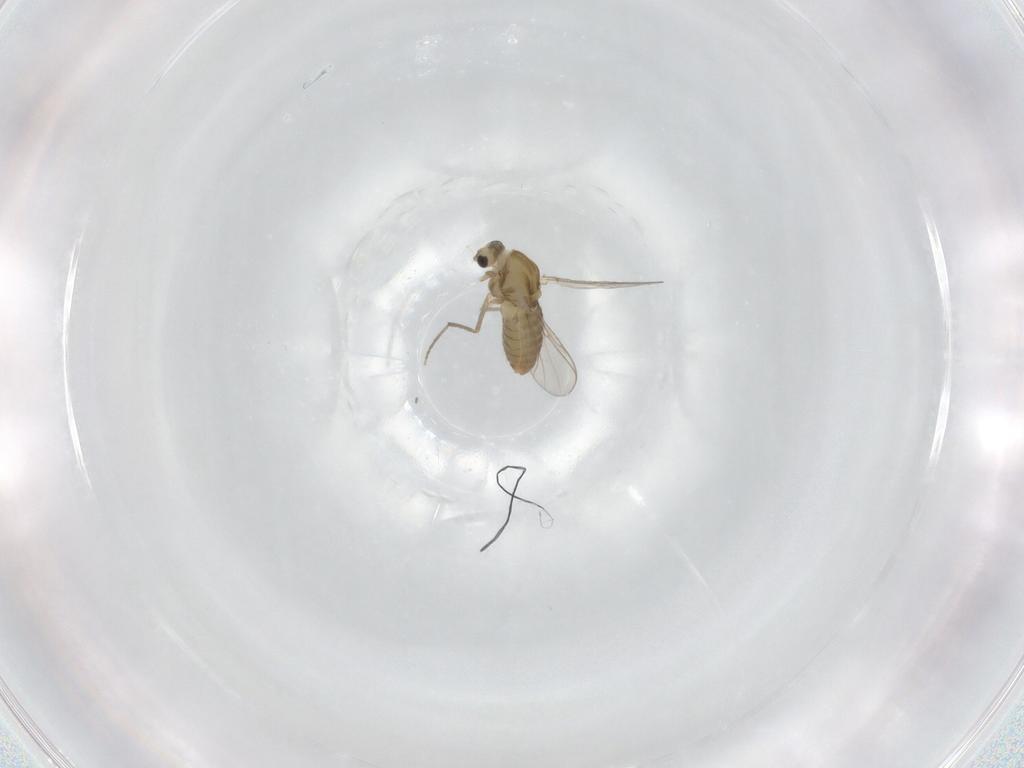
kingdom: Animalia
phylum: Arthropoda
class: Insecta
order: Diptera
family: Chironomidae
